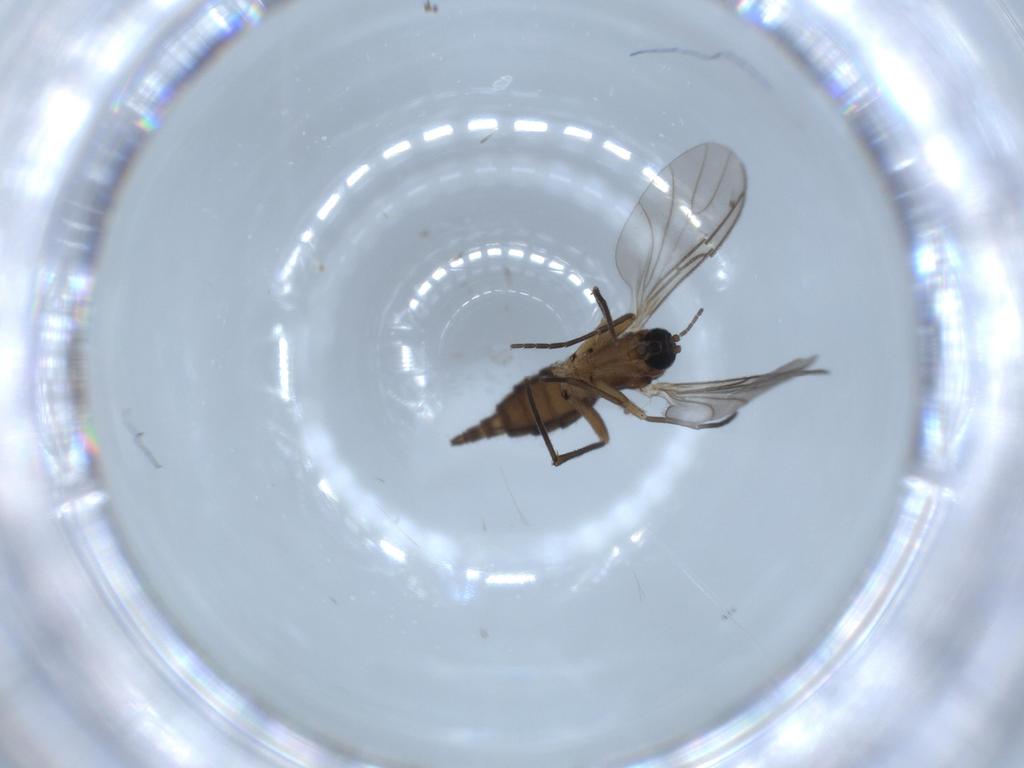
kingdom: Animalia
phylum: Arthropoda
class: Insecta
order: Diptera
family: Sciaridae
